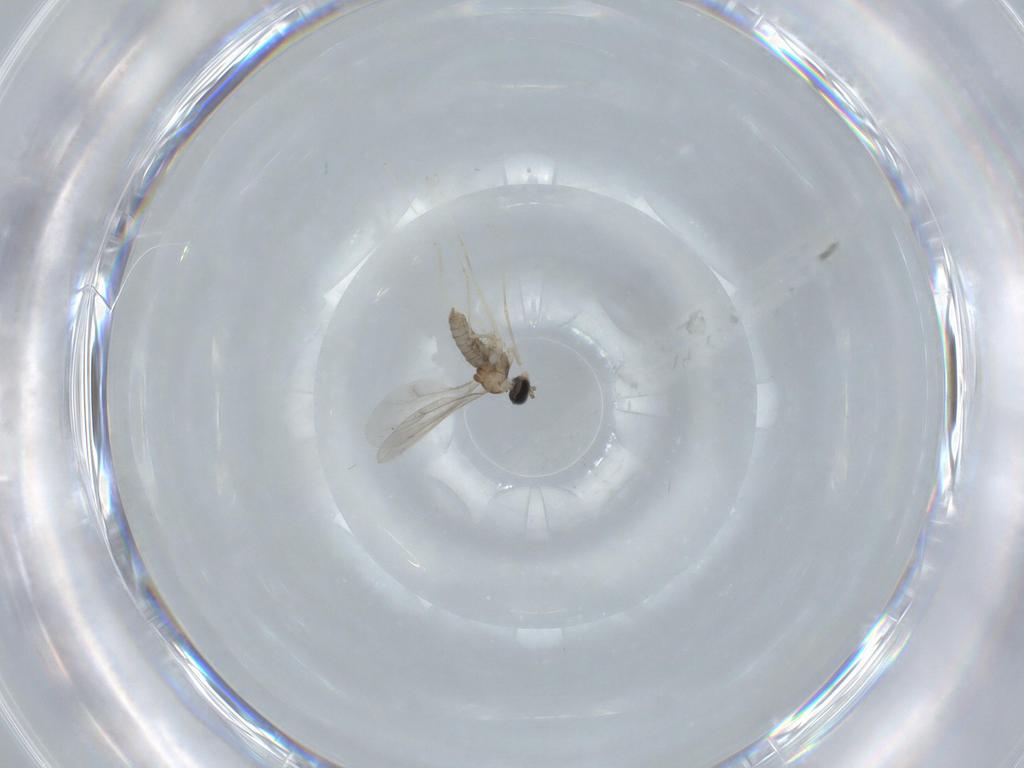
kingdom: Animalia
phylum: Arthropoda
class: Insecta
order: Diptera
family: Cecidomyiidae
